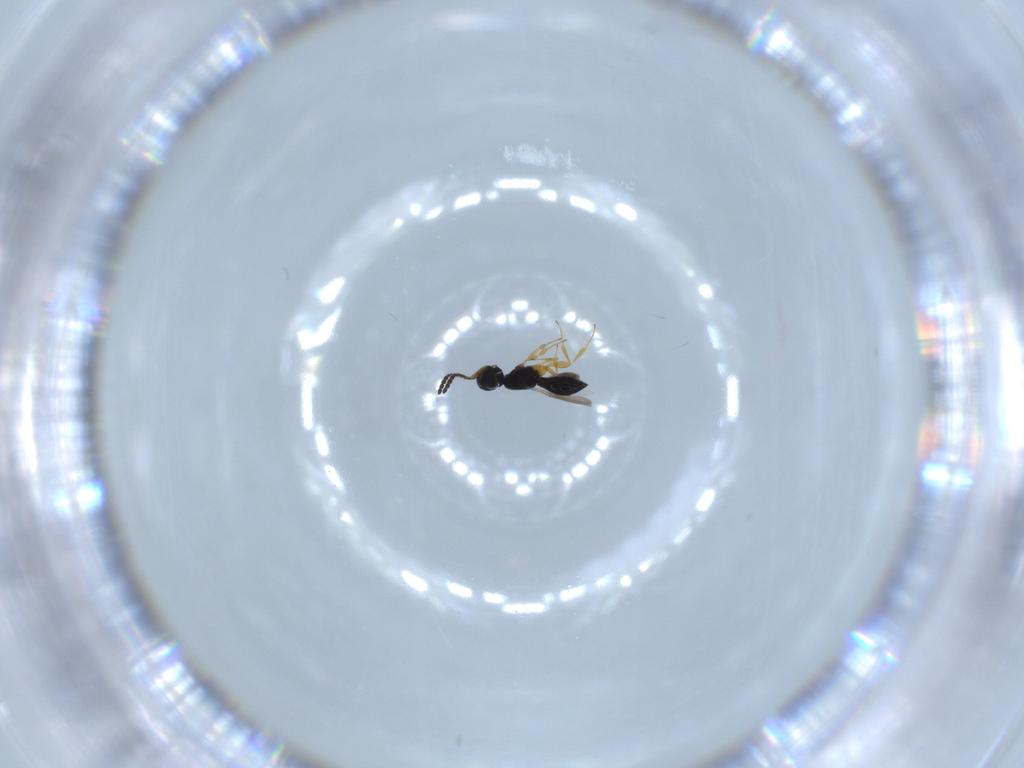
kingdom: Animalia
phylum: Arthropoda
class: Insecta
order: Hymenoptera
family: Scelionidae
